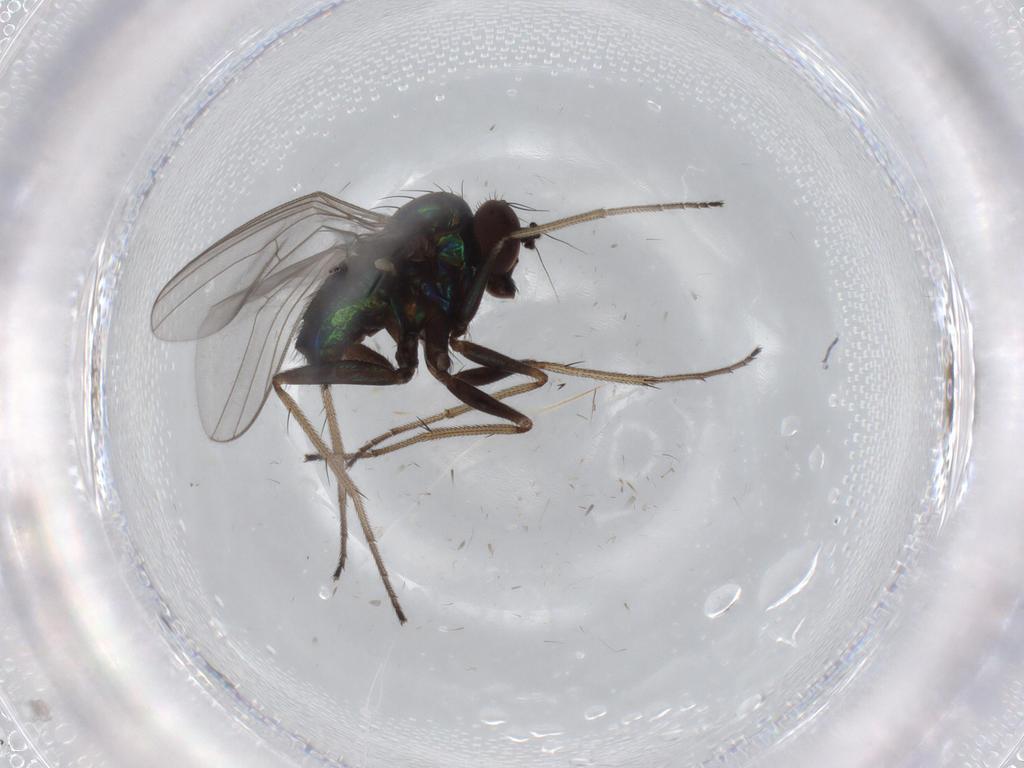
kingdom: Animalia
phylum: Arthropoda
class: Insecta
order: Diptera
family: Dolichopodidae
